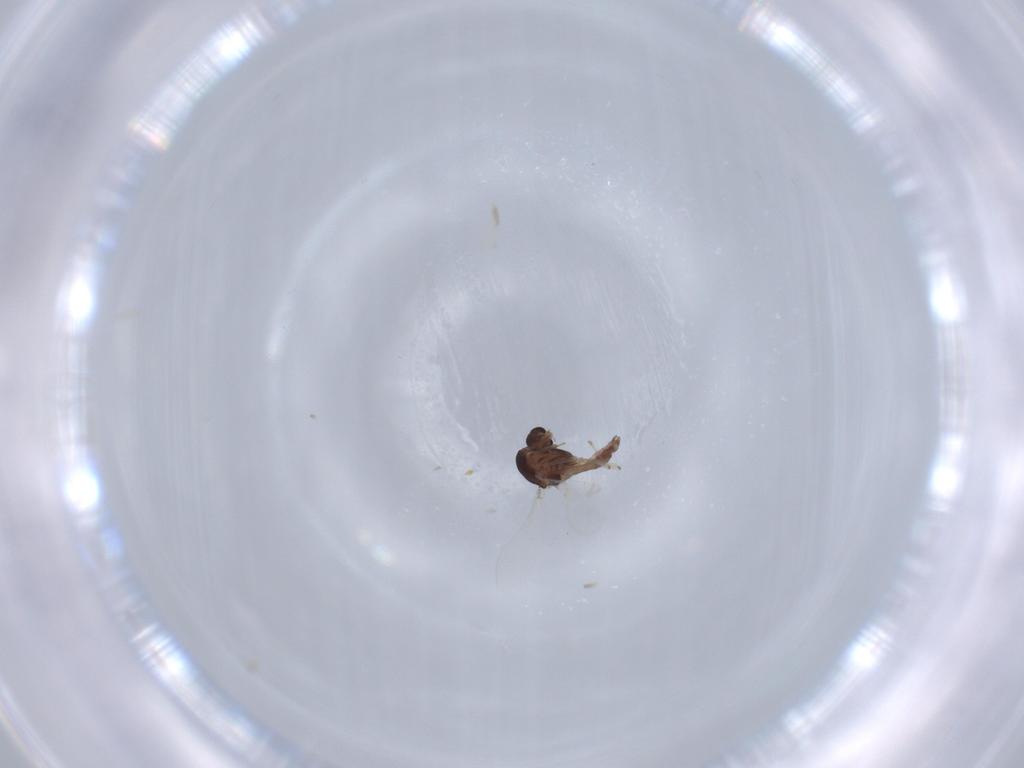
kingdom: Animalia
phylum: Arthropoda
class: Insecta
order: Diptera
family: Chironomidae
